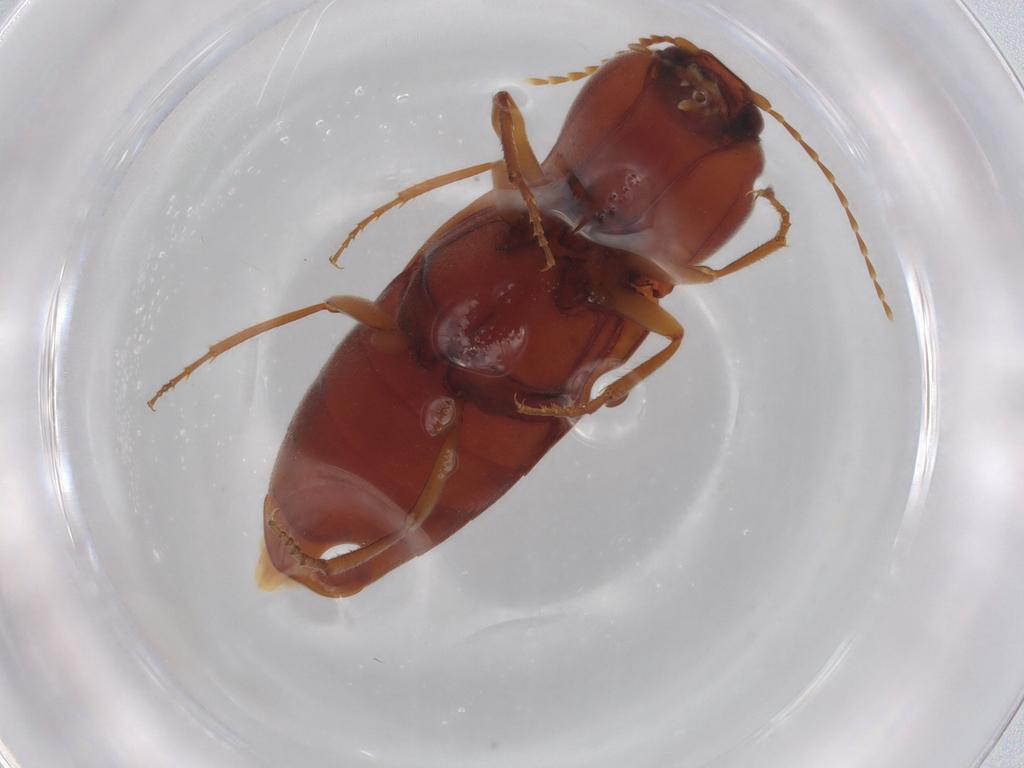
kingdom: Animalia
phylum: Arthropoda
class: Insecta
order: Coleoptera
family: Elateridae
